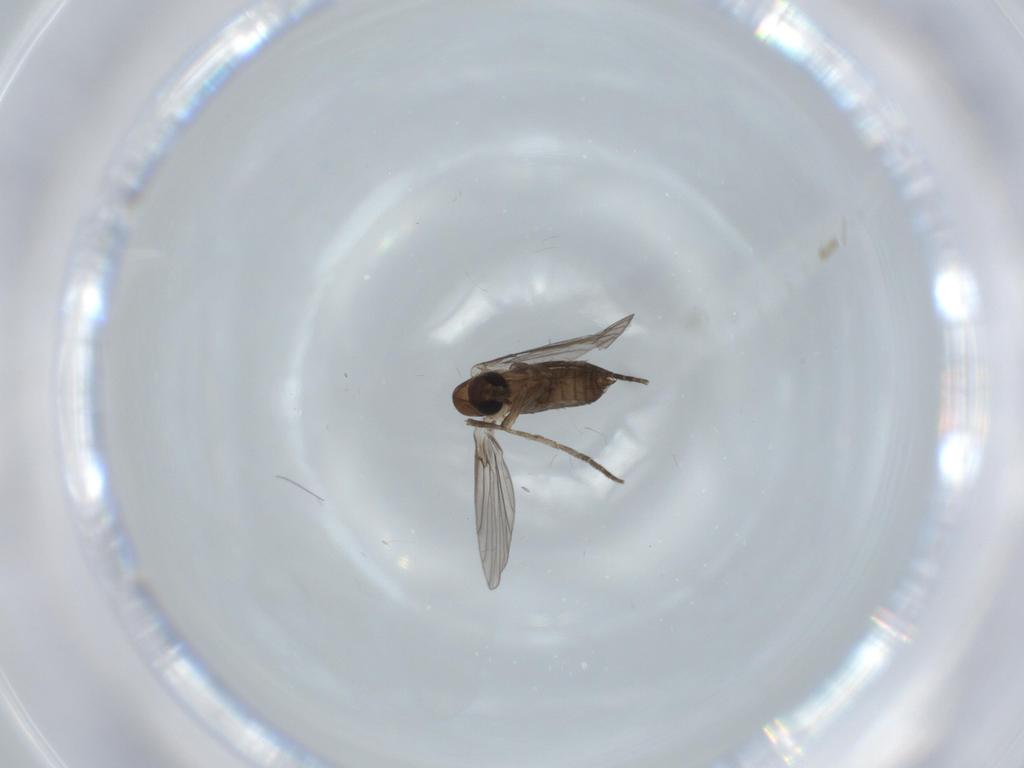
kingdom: Animalia
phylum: Arthropoda
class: Insecta
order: Diptera
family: Psychodidae
